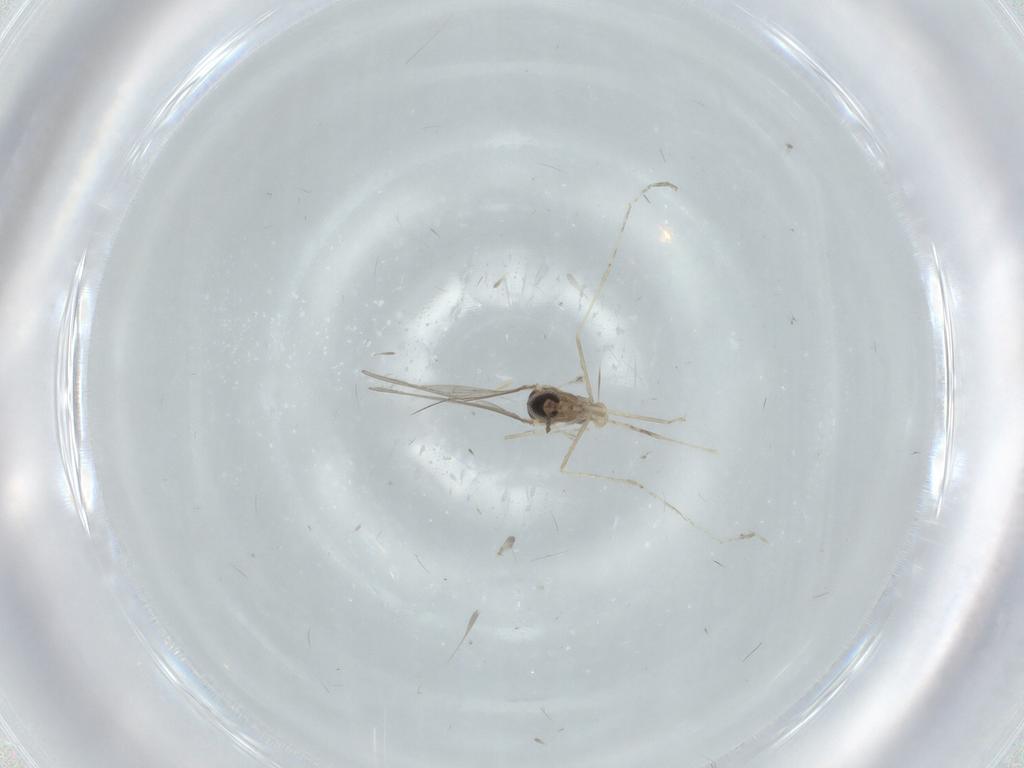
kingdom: Animalia
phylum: Arthropoda
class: Insecta
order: Diptera
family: Cecidomyiidae
